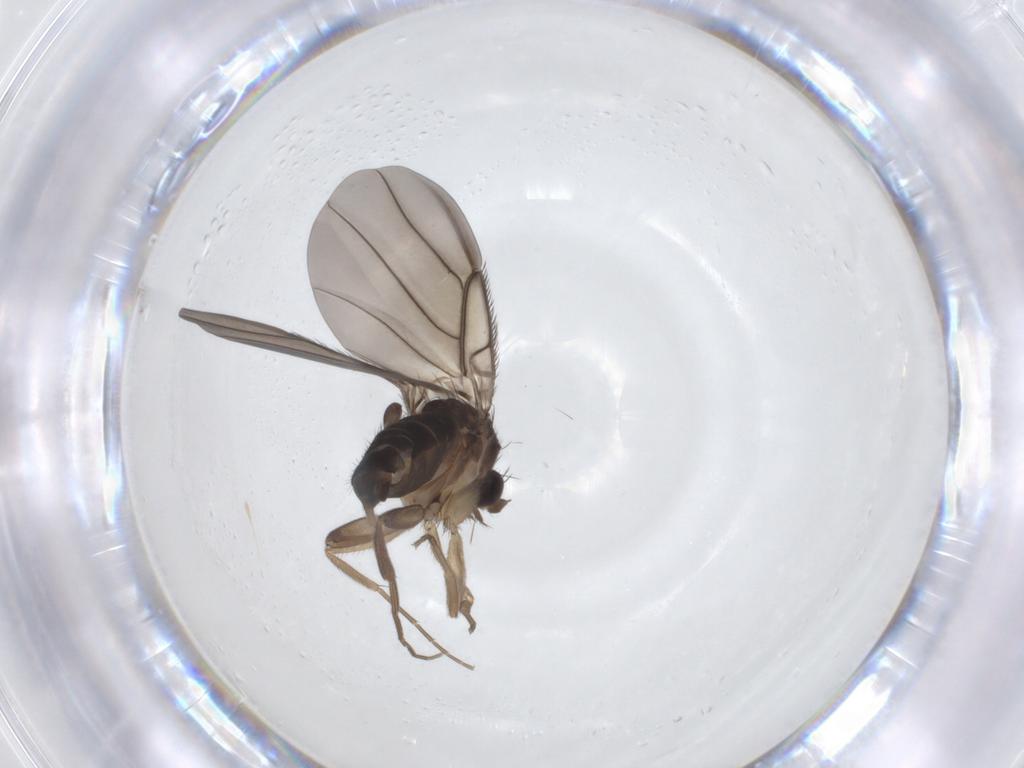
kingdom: Animalia
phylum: Arthropoda
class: Insecta
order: Diptera
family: Phoridae
